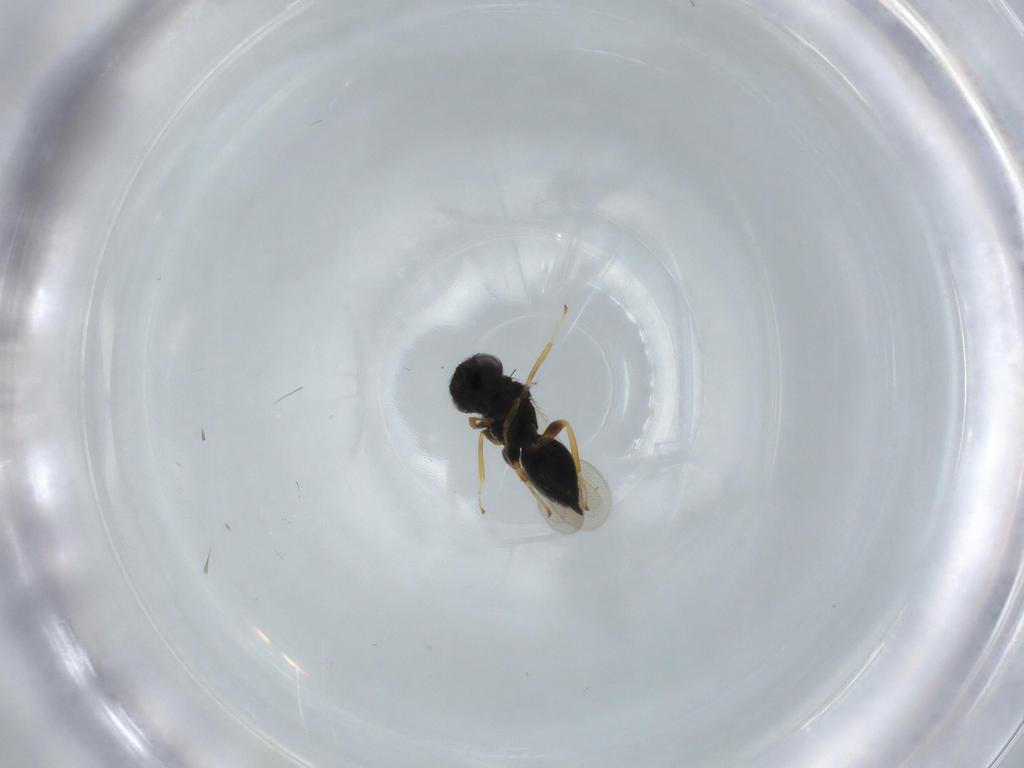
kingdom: Animalia
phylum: Arthropoda
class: Insecta
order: Hymenoptera
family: Pteromalidae
